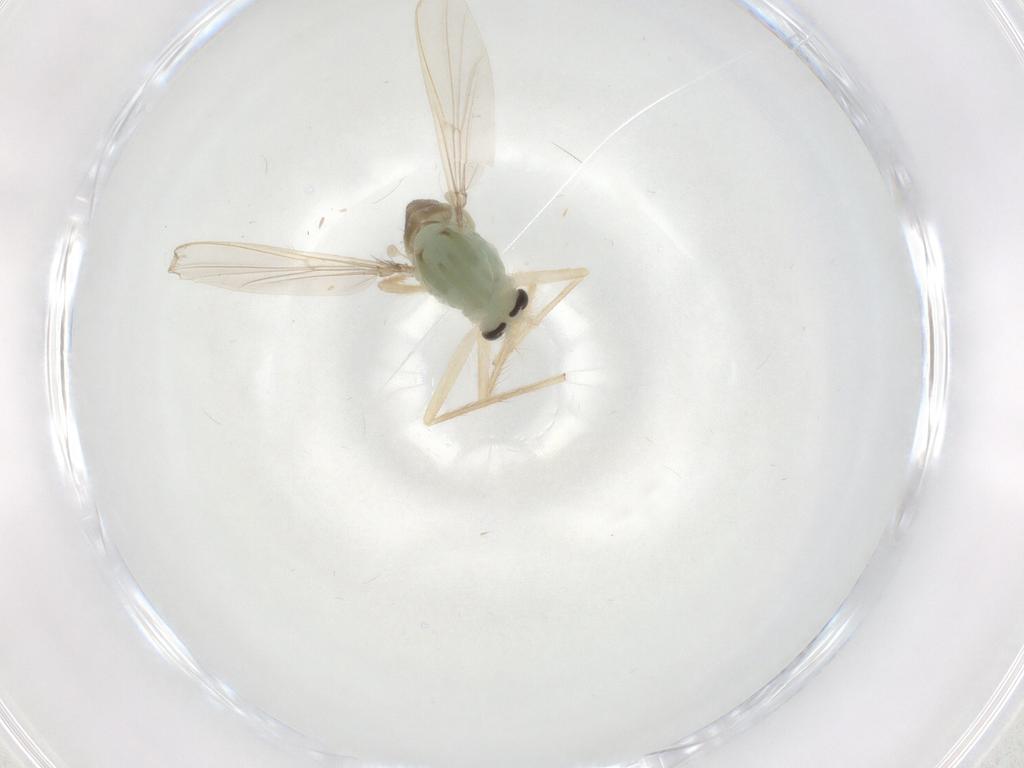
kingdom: Animalia
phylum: Arthropoda
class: Insecta
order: Diptera
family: Chironomidae
